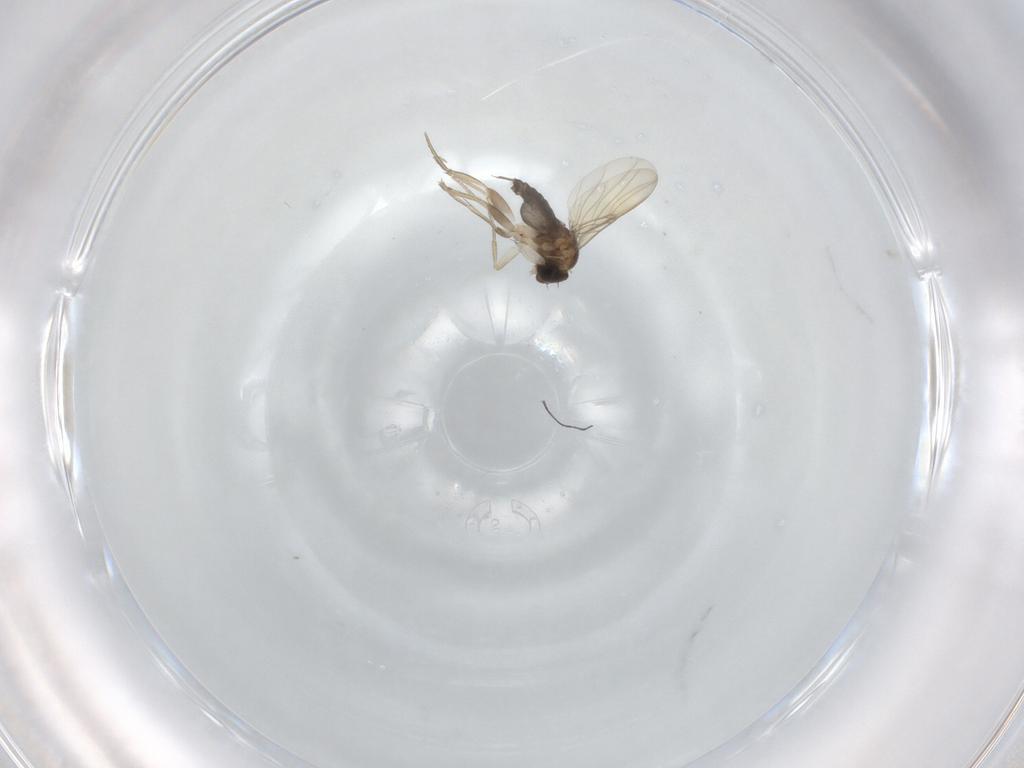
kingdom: Animalia
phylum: Arthropoda
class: Insecta
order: Diptera
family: Phoridae
